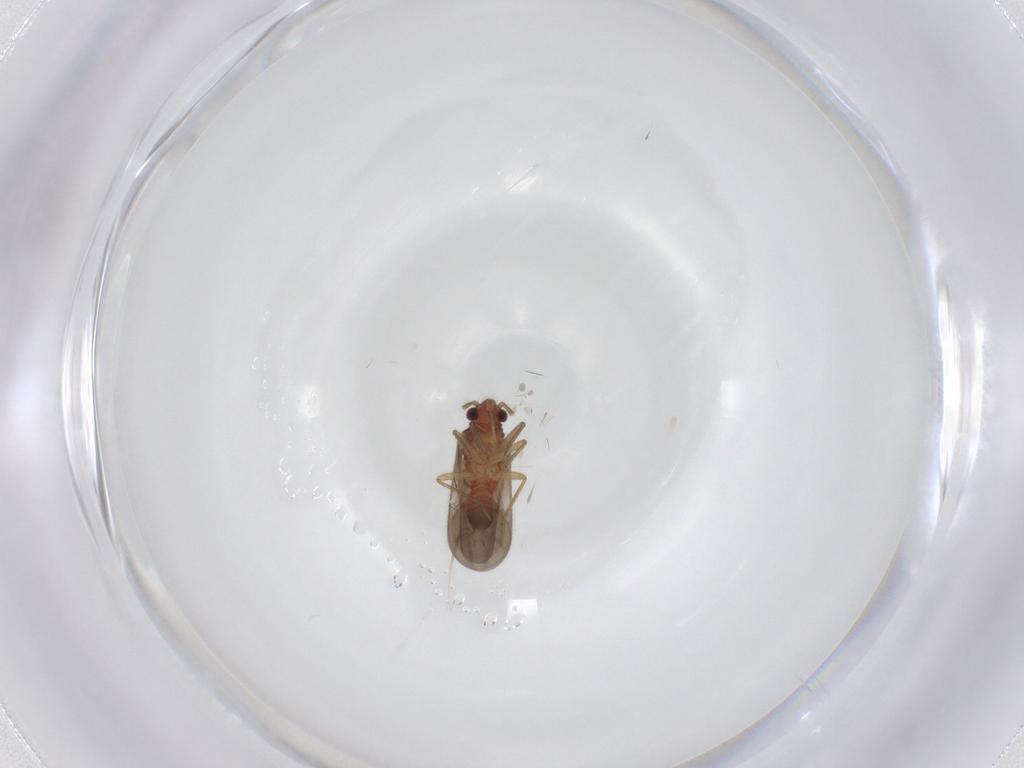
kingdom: Animalia
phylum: Arthropoda
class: Insecta
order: Hemiptera
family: Ceratocombidae
